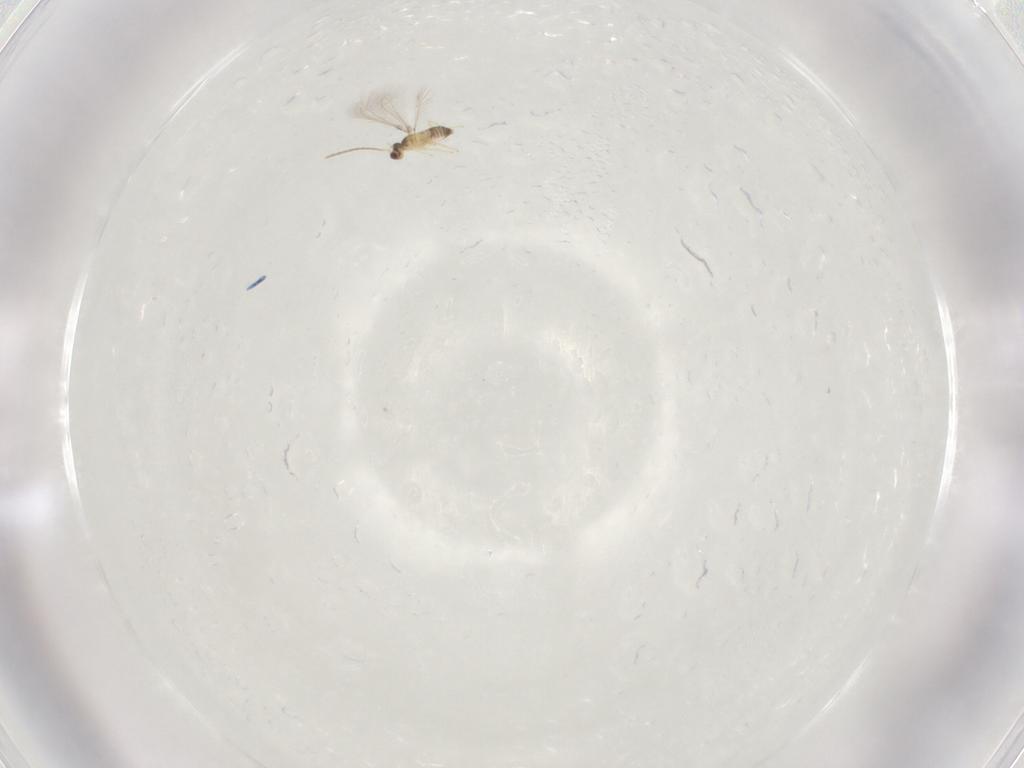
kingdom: Animalia
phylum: Arthropoda
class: Insecta
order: Hymenoptera
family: Mymaridae
